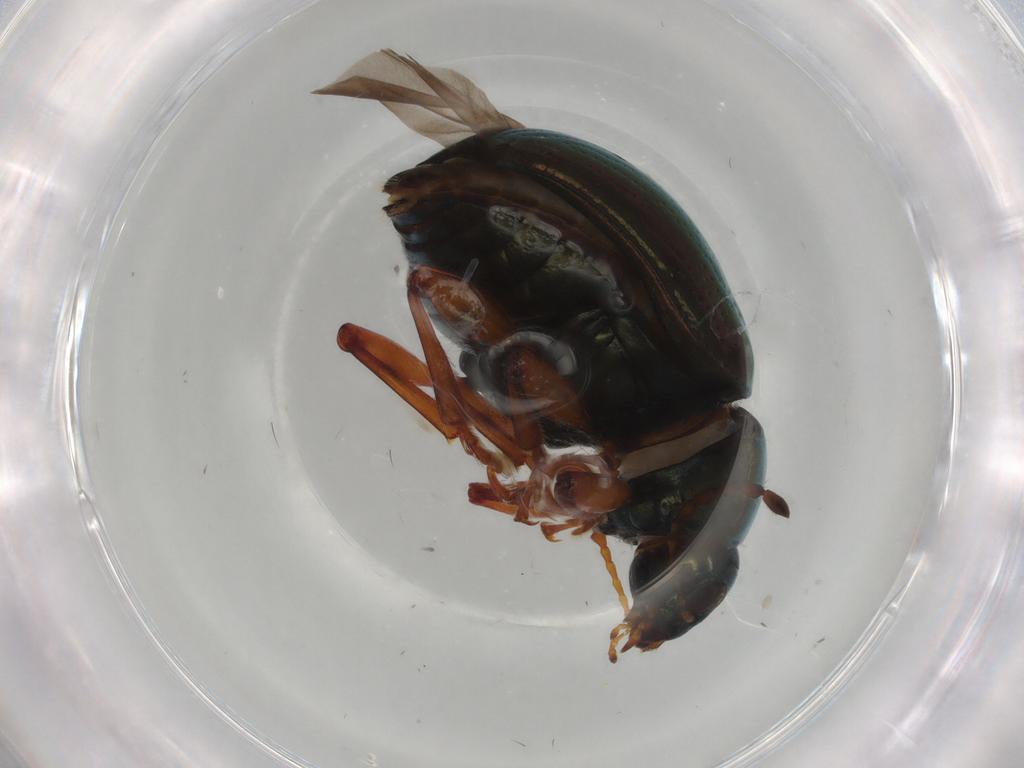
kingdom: Animalia
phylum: Arthropoda
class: Insecta
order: Coleoptera
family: Chrysomelidae
